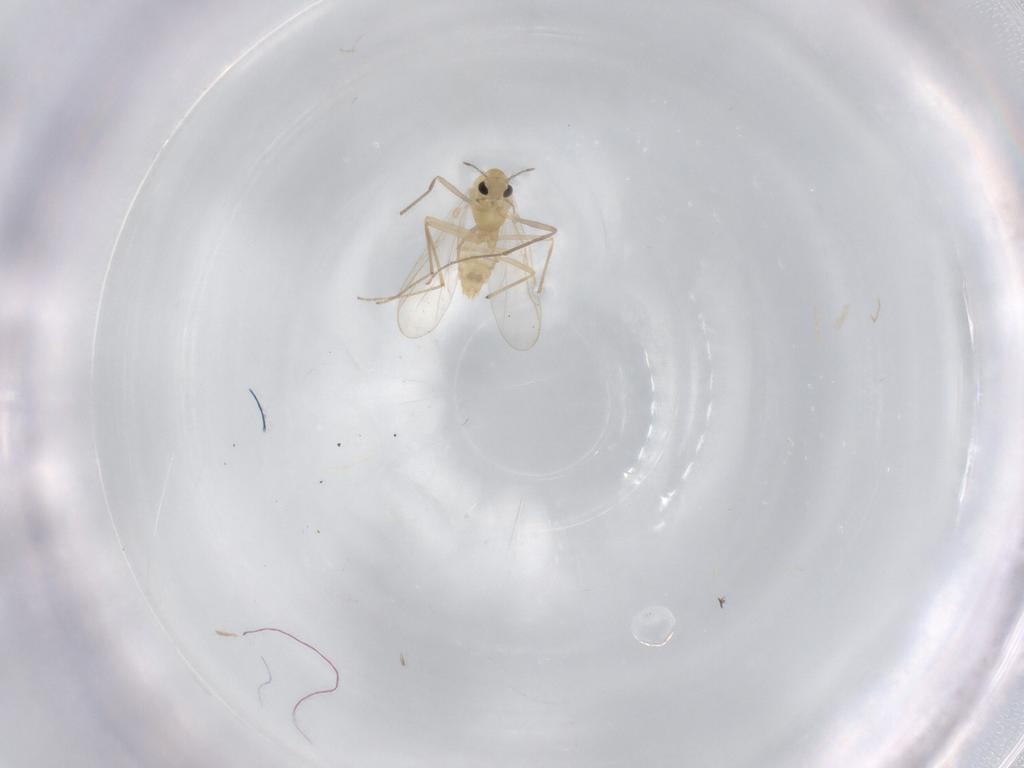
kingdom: Animalia
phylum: Arthropoda
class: Insecta
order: Diptera
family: Chironomidae
